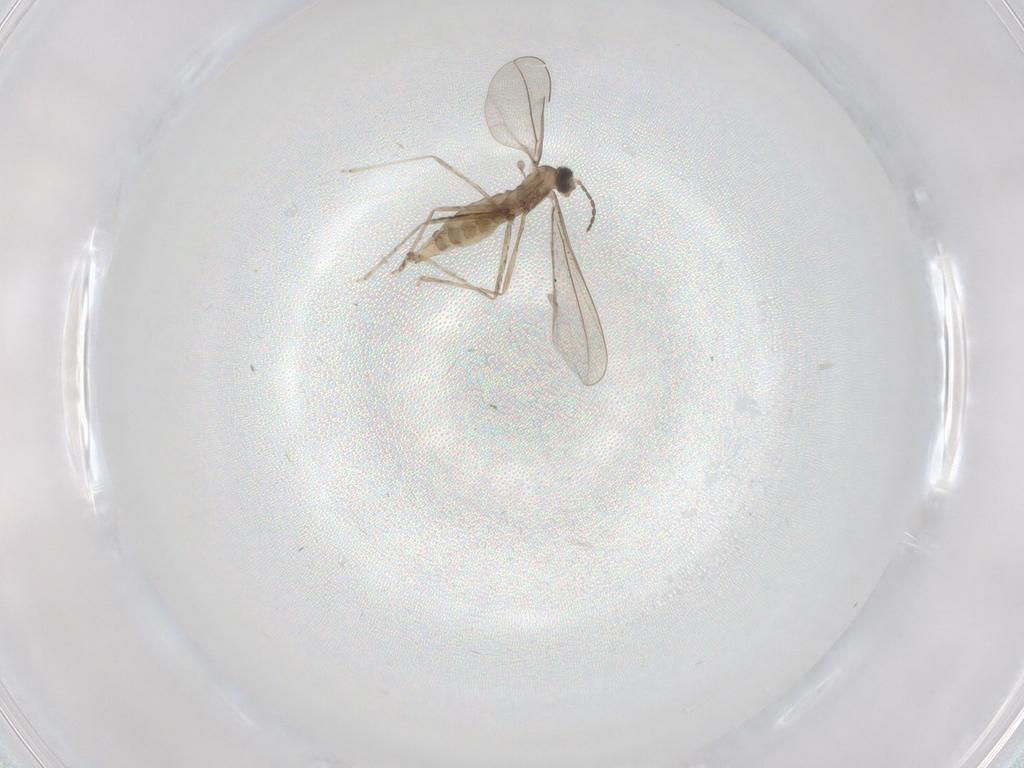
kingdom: Animalia
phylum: Arthropoda
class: Insecta
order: Diptera
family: Cecidomyiidae
